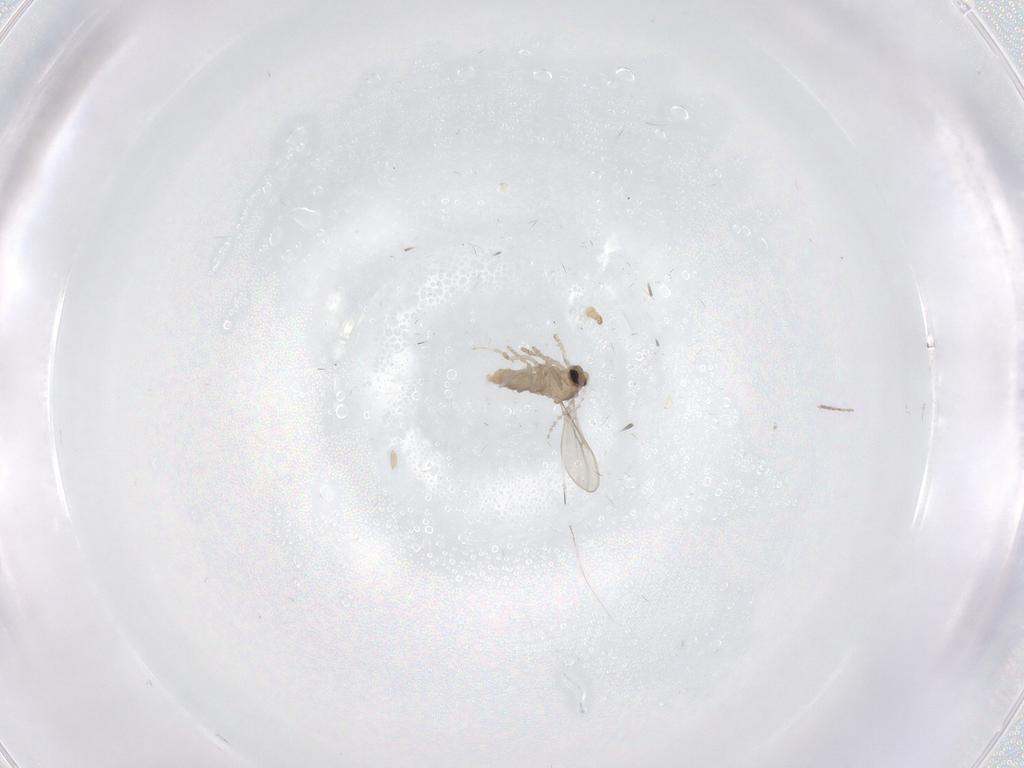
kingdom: Animalia
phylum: Arthropoda
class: Insecta
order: Diptera
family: Cecidomyiidae
